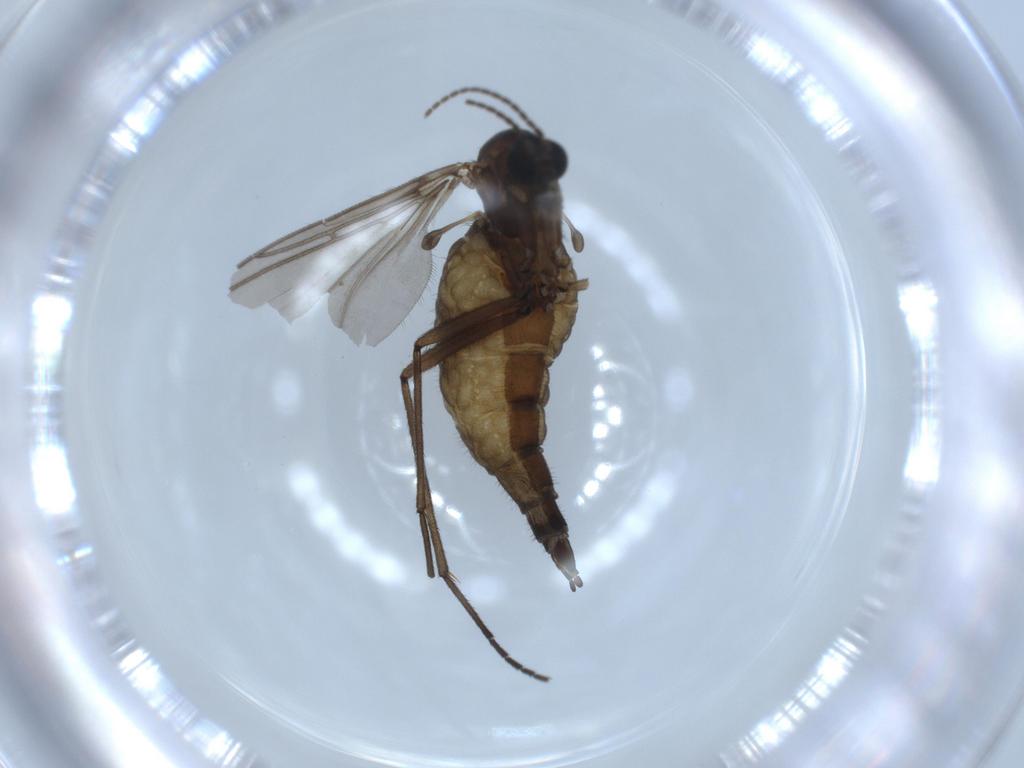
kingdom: Animalia
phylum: Arthropoda
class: Insecta
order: Diptera
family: Sciaridae
